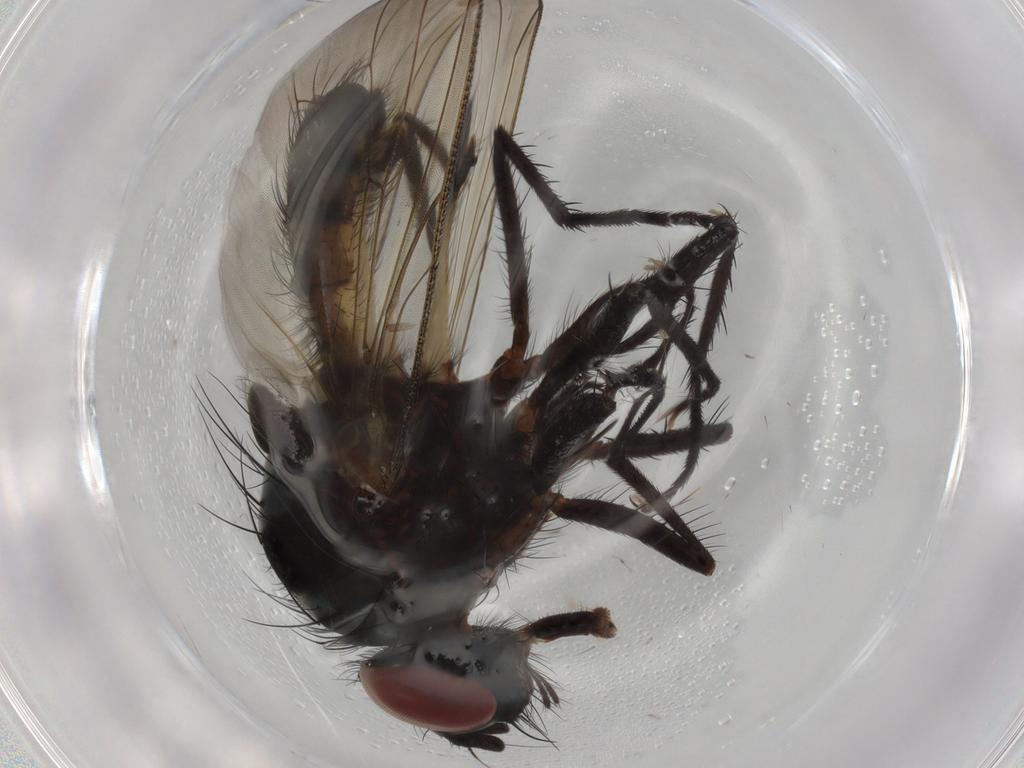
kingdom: Animalia
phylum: Arthropoda
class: Insecta
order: Diptera
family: Anthomyiidae
